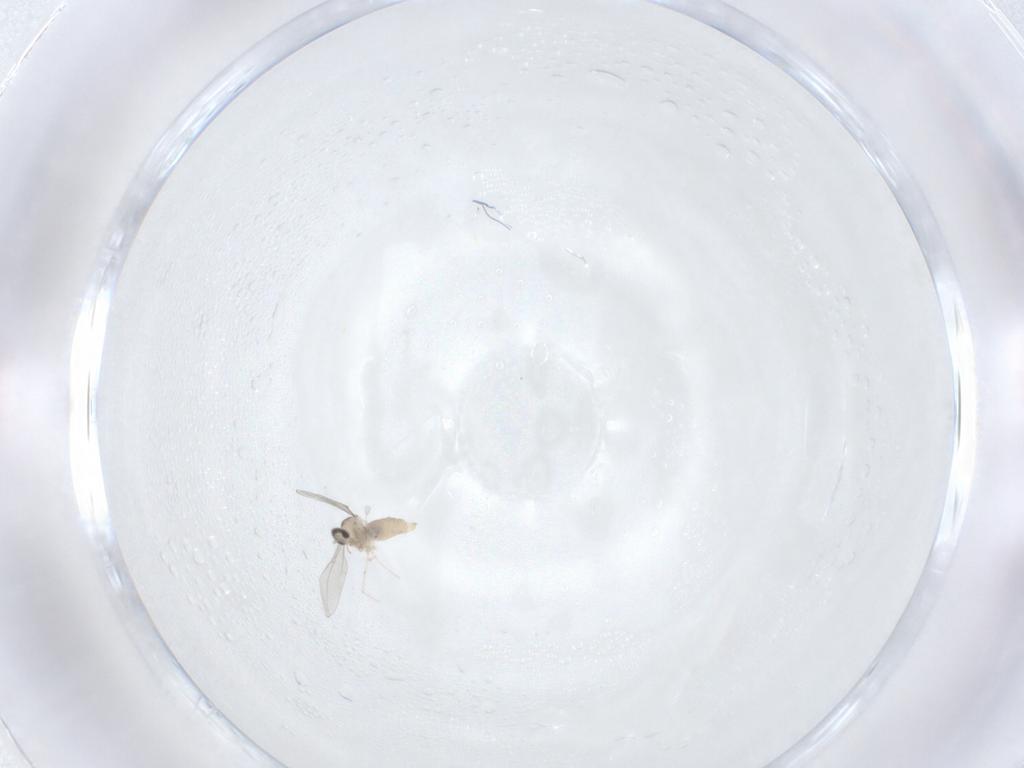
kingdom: Animalia
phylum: Arthropoda
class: Insecta
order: Diptera
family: Cecidomyiidae
